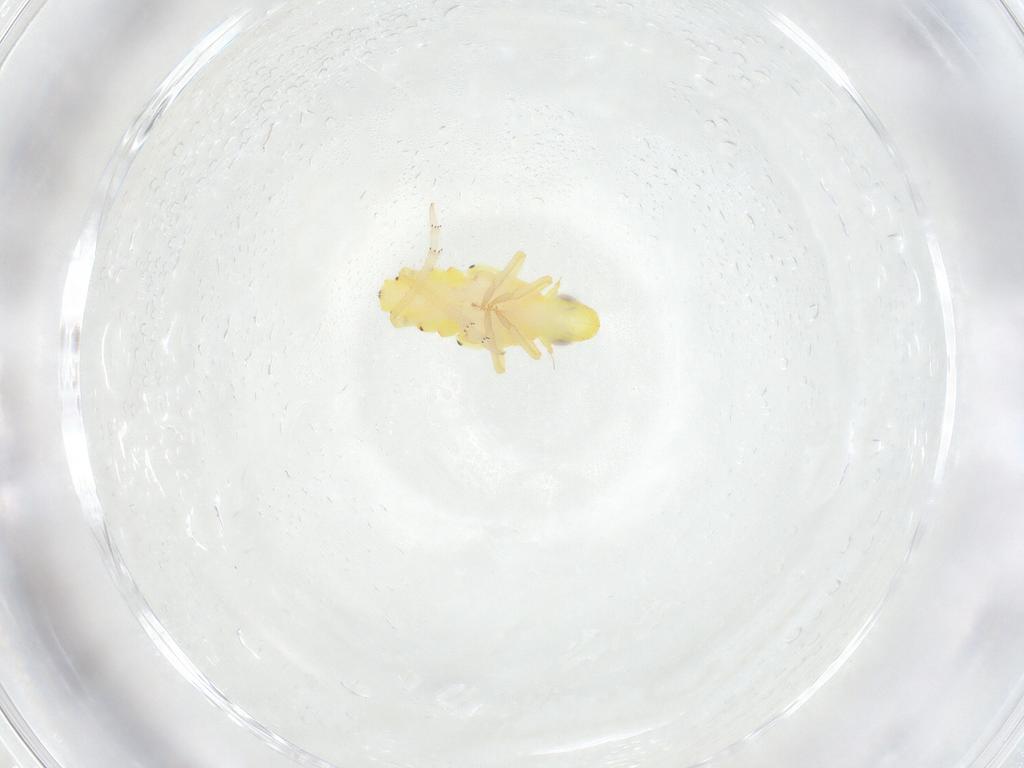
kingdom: Animalia
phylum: Arthropoda
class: Insecta
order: Hemiptera
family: Tropiduchidae
